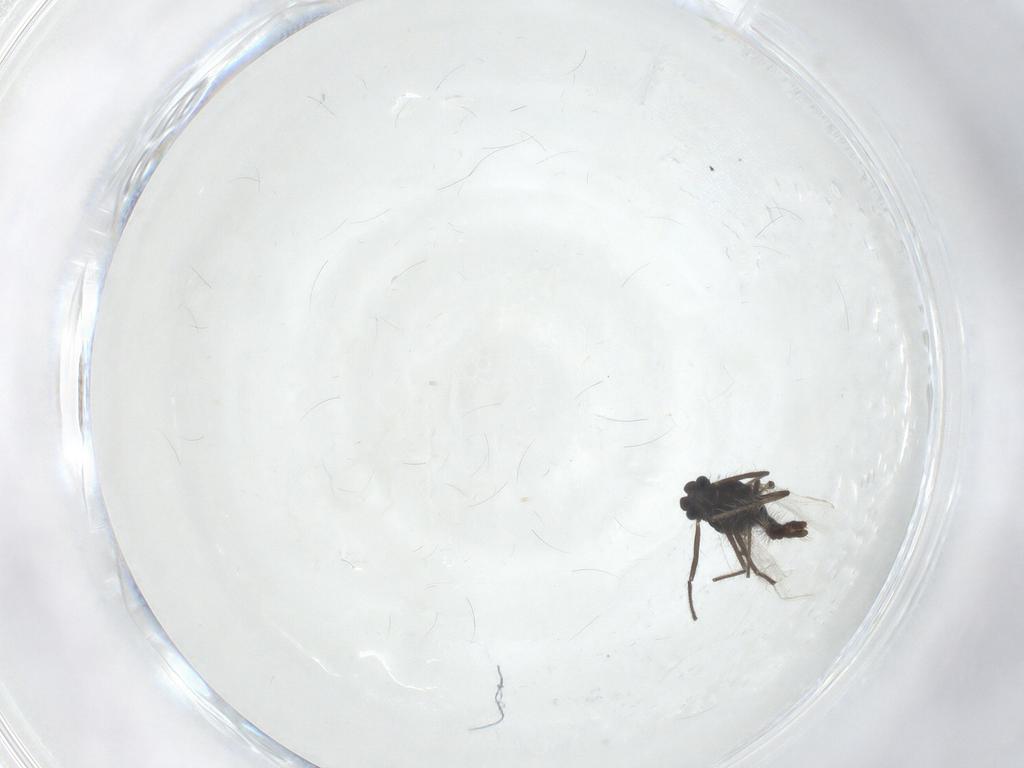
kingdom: Animalia
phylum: Arthropoda
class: Insecta
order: Diptera
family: Chironomidae
